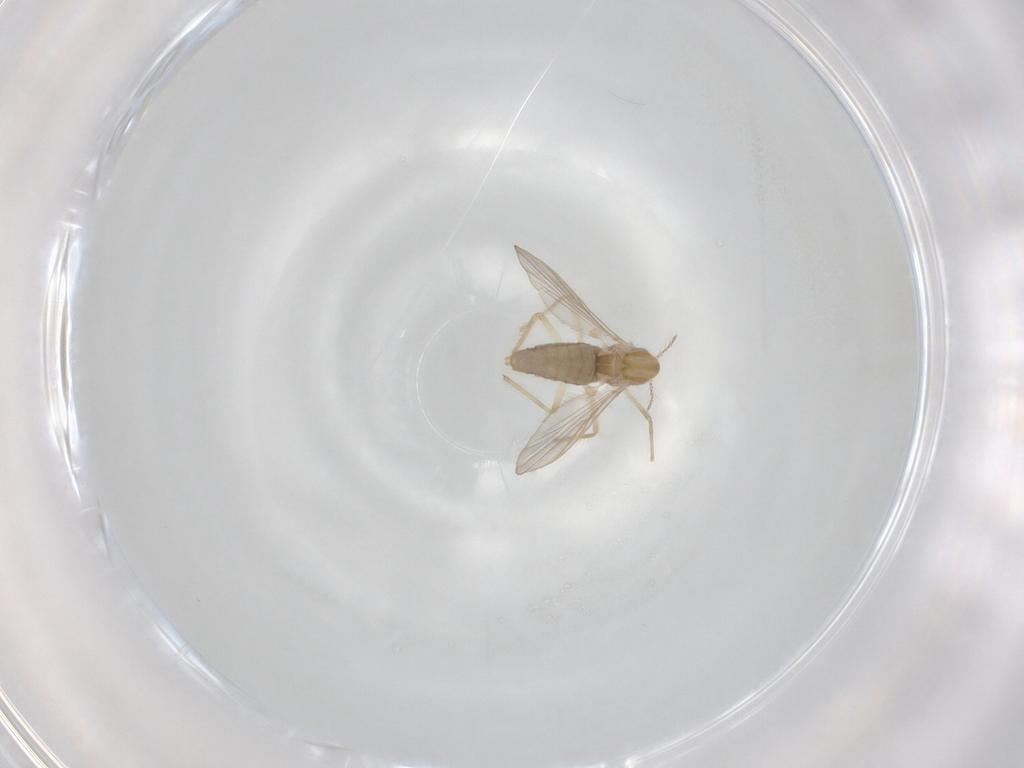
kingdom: Animalia
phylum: Arthropoda
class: Insecta
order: Diptera
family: Chironomidae
